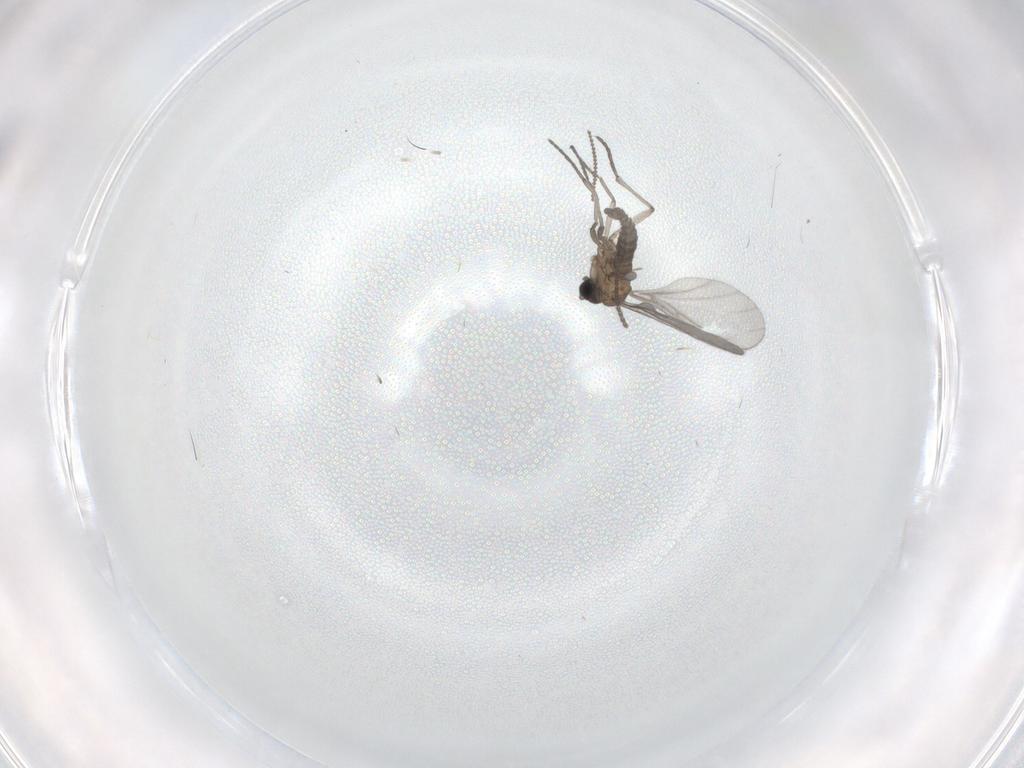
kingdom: Animalia
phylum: Arthropoda
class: Insecta
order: Diptera
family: Sciaridae
